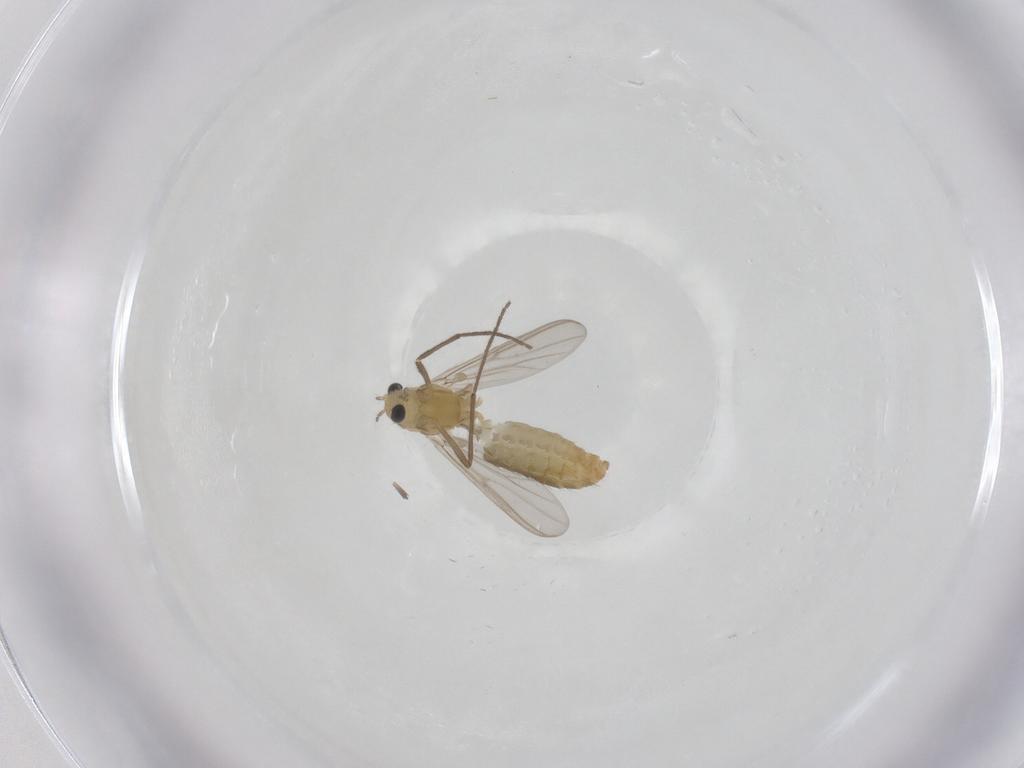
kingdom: Animalia
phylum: Arthropoda
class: Insecta
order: Diptera
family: Chironomidae
